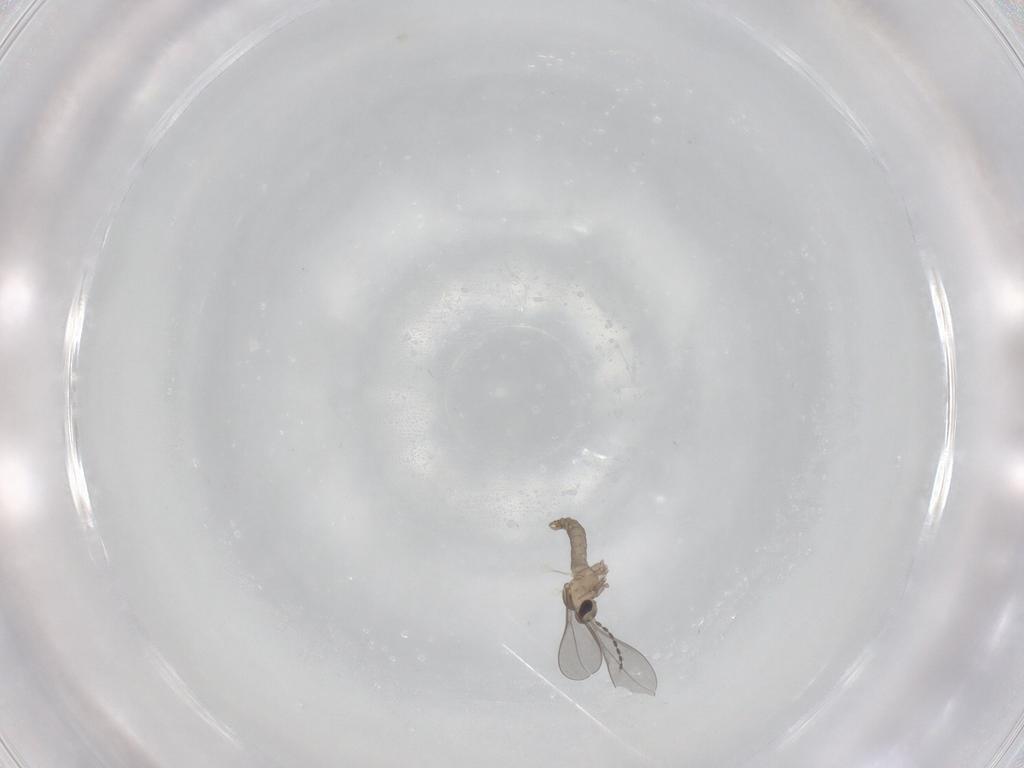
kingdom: Animalia
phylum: Arthropoda
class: Insecta
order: Diptera
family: Cecidomyiidae
